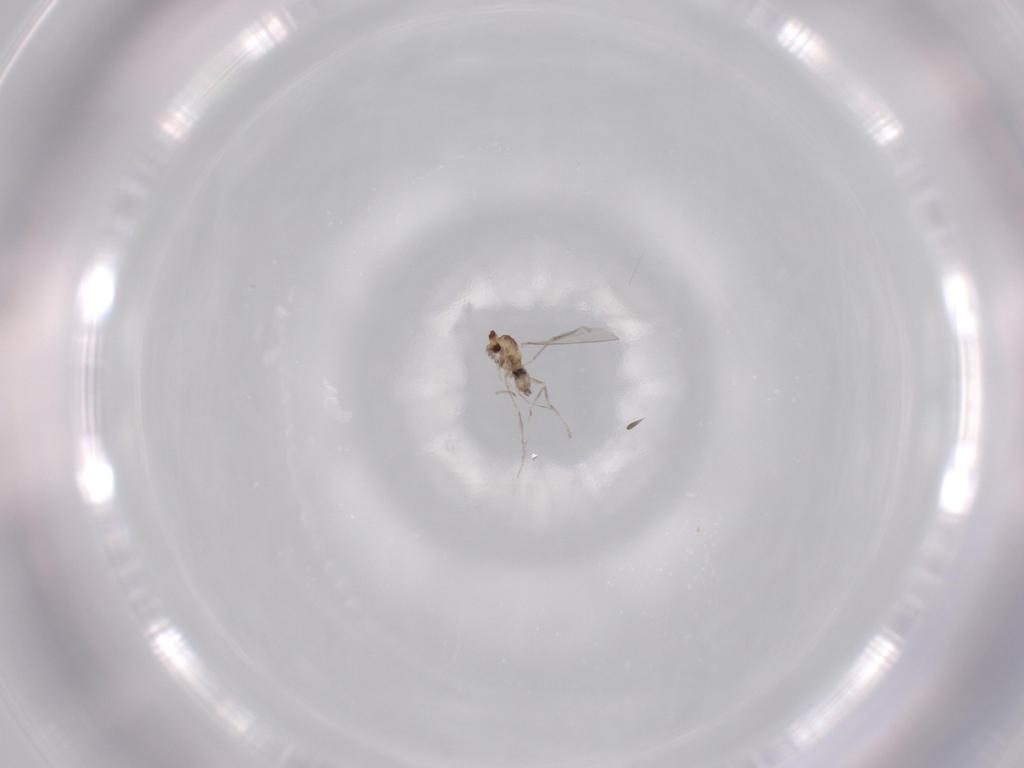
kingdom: Animalia
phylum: Arthropoda
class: Insecta
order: Diptera
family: Cecidomyiidae
